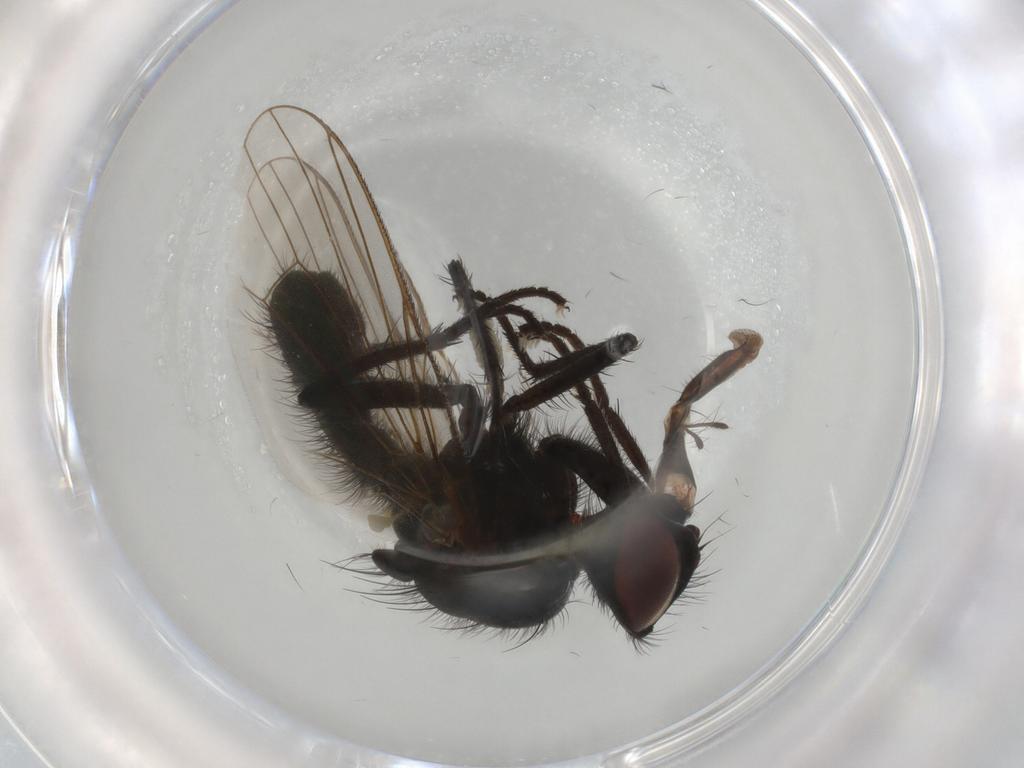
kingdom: Animalia
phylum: Arthropoda
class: Insecta
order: Diptera
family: Anthomyiidae
